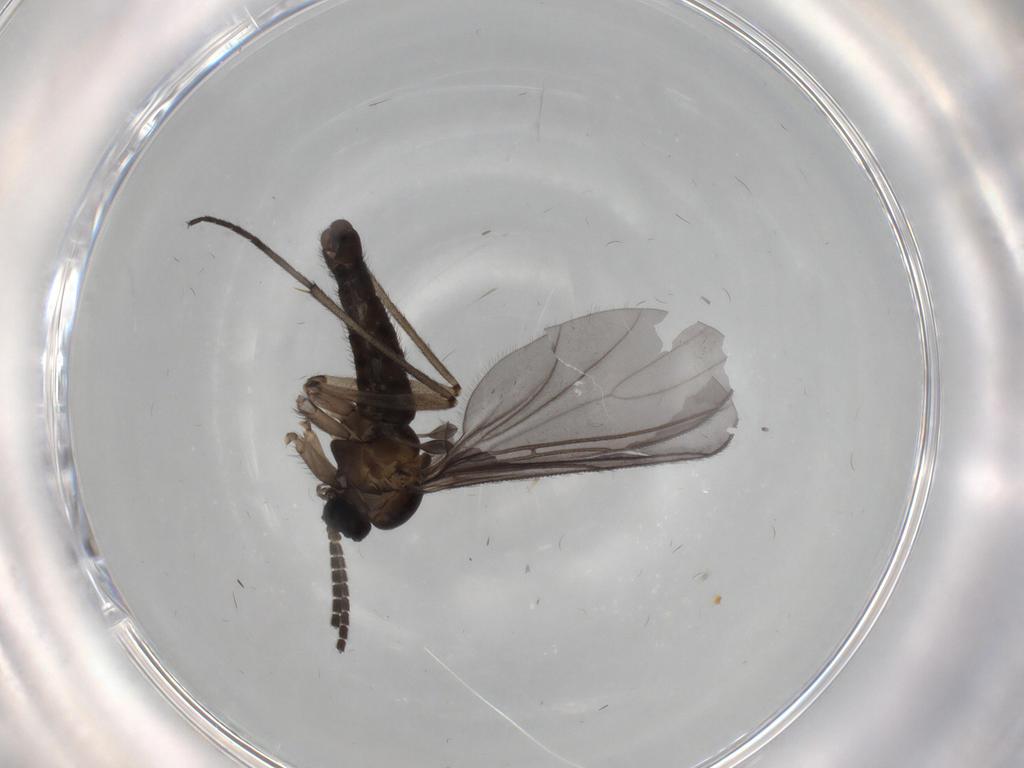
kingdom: Animalia
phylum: Arthropoda
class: Insecta
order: Diptera
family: Sciaridae
